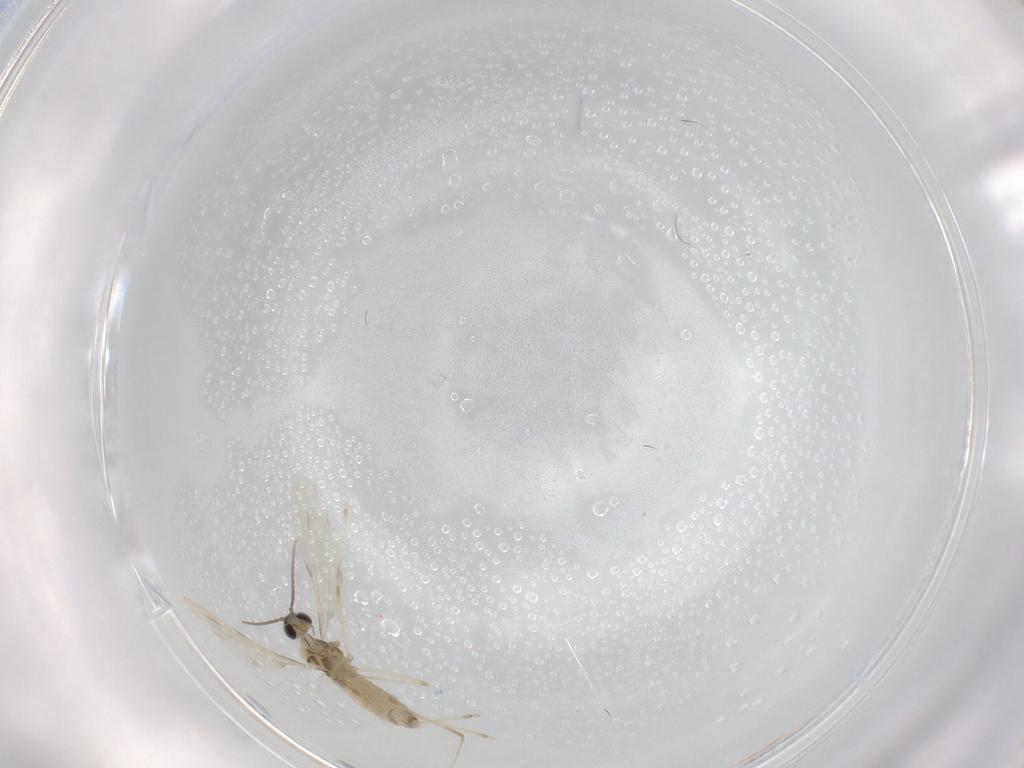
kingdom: Animalia
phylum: Arthropoda
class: Insecta
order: Diptera
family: Cecidomyiidae
